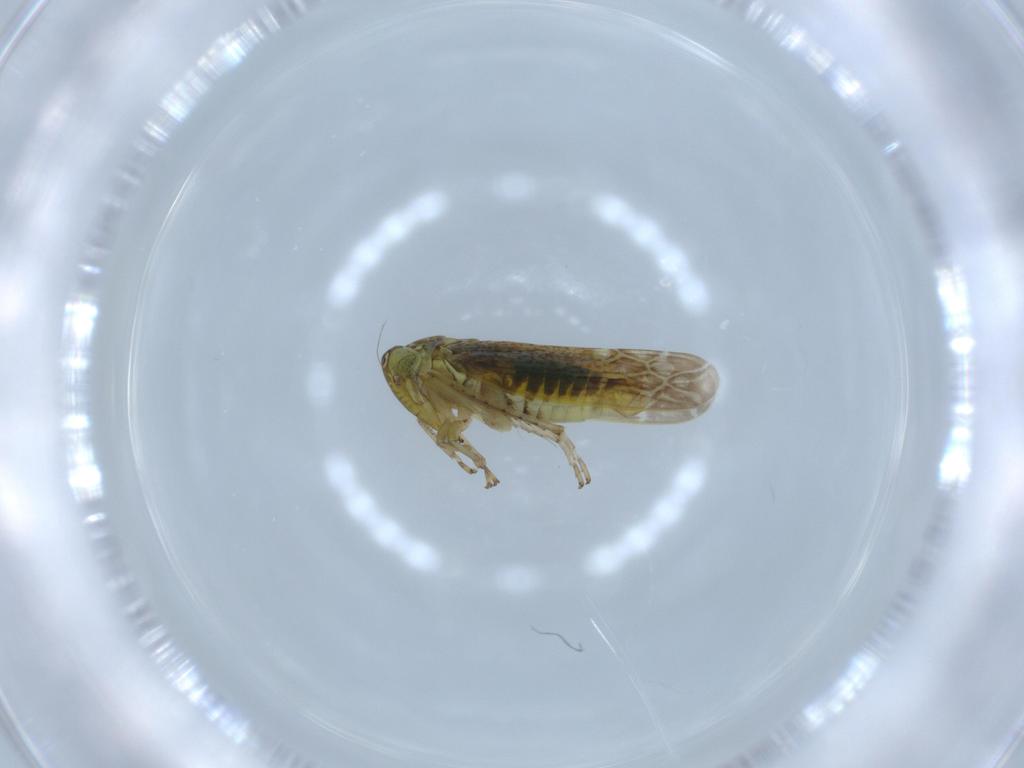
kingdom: Animalia
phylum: Arthropoda
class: Insecta
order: Hemiptera
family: Cicadellidae
